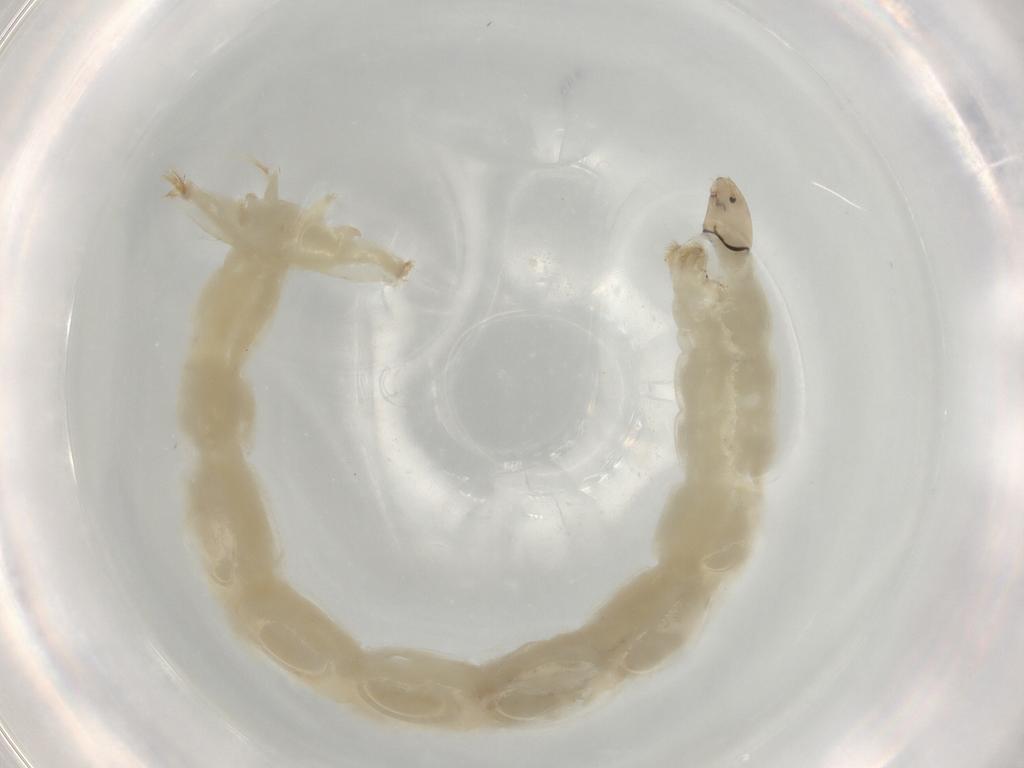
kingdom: Animalia
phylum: Arthropoda
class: Insecta
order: Diptera
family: Chironomidae
